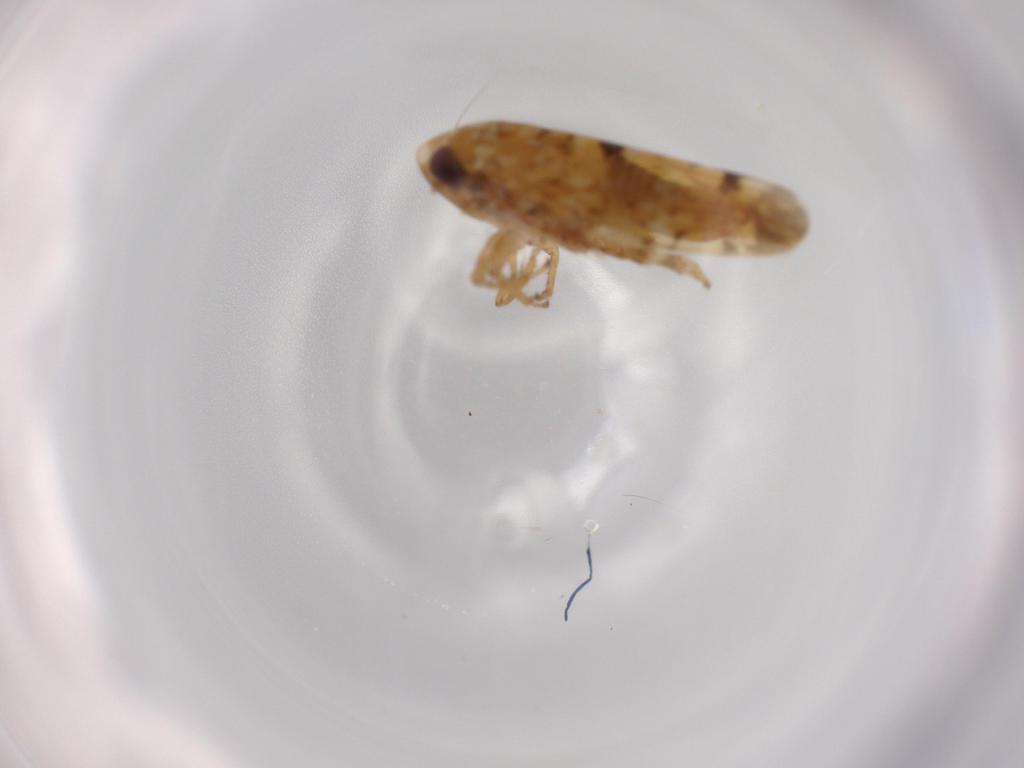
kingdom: Animalia
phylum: Arthropoda
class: Insecta
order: Hemiptera
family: Cicadellidae
